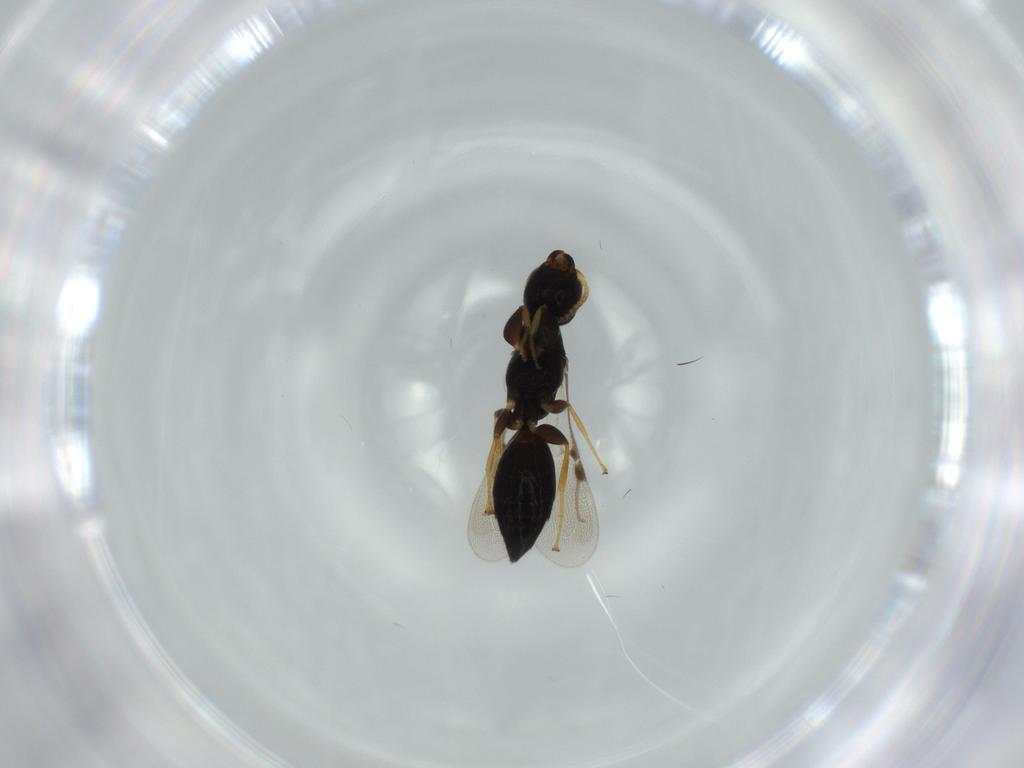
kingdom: Animalia
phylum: Arthropoda
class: Insecta
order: Hymenoptera
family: Bethylidae
